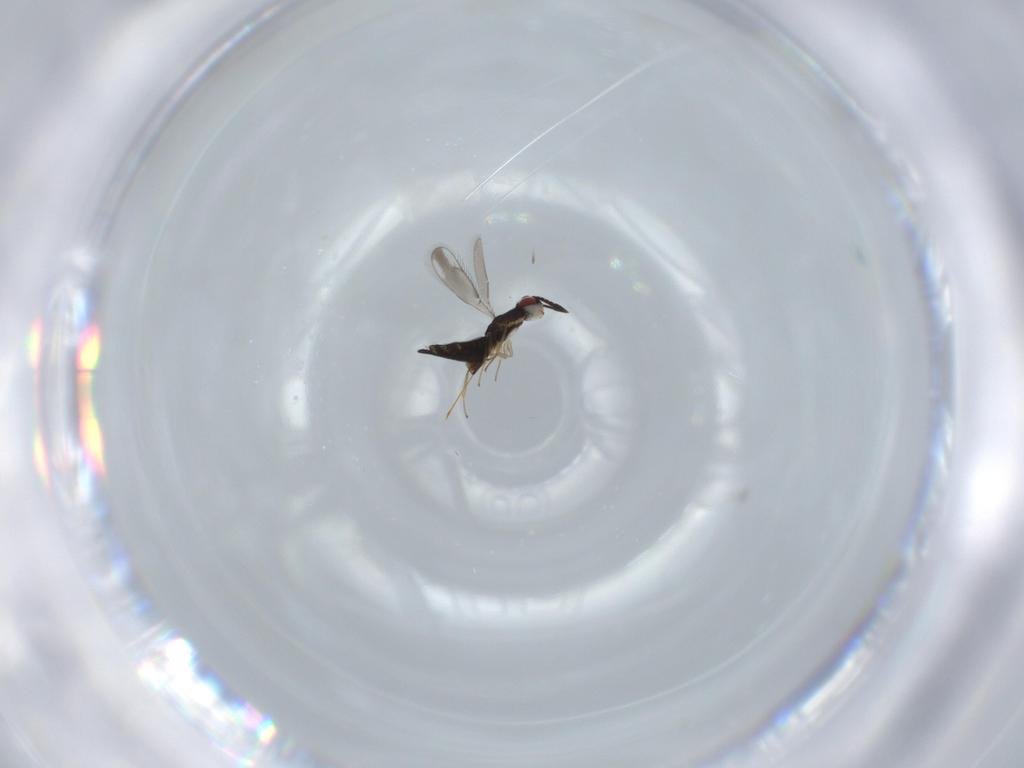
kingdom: Animalia
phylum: Arthropoda
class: Insecta
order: Hymenoptera
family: Pteromalidae
